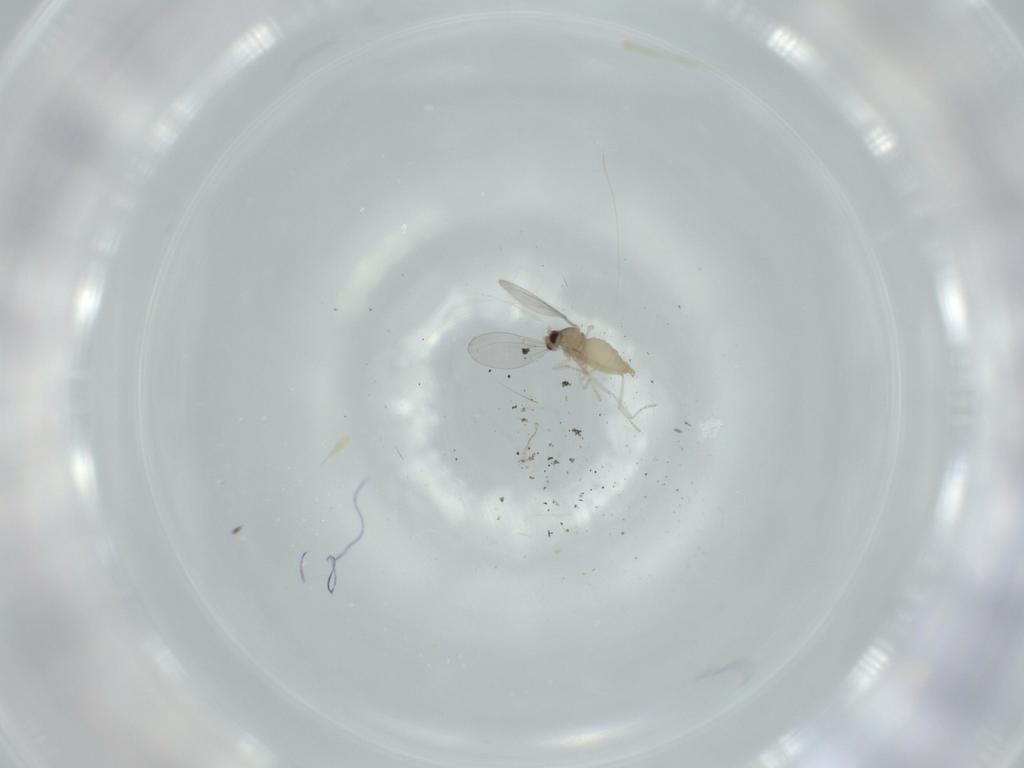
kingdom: Animalia
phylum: Arthropoda
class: Insecta
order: Diptera
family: Cecidomyiidae
